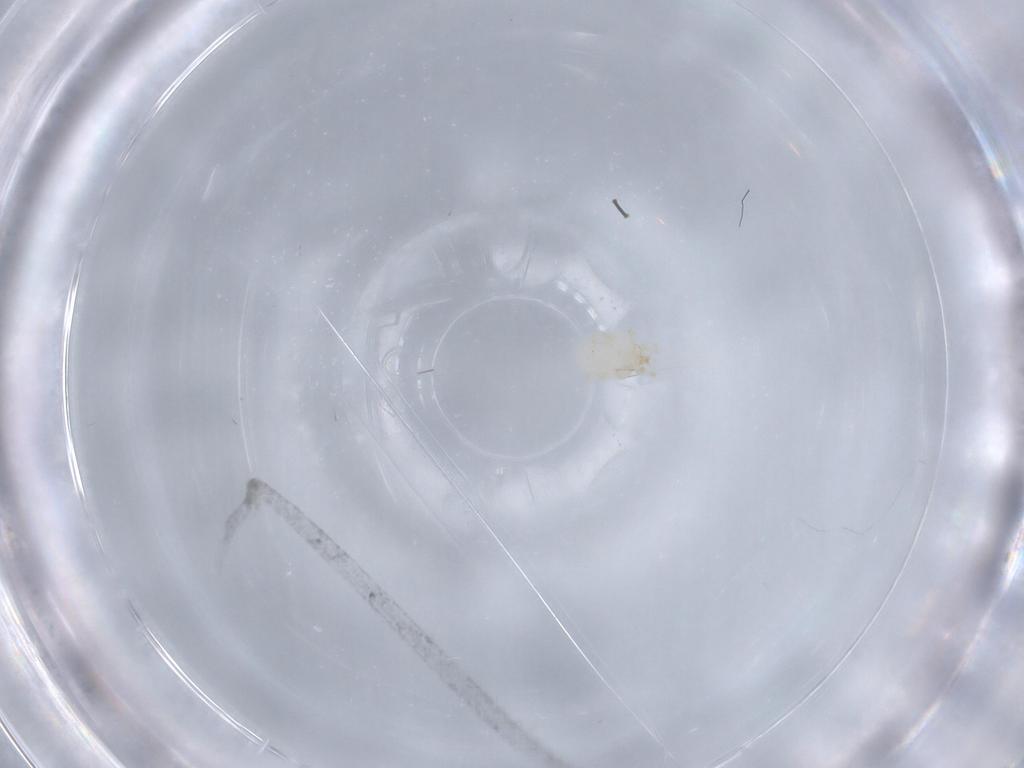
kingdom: Animalia
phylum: Arthropoda
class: Arachnida
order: Trombidiformes
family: Erythraeidae
